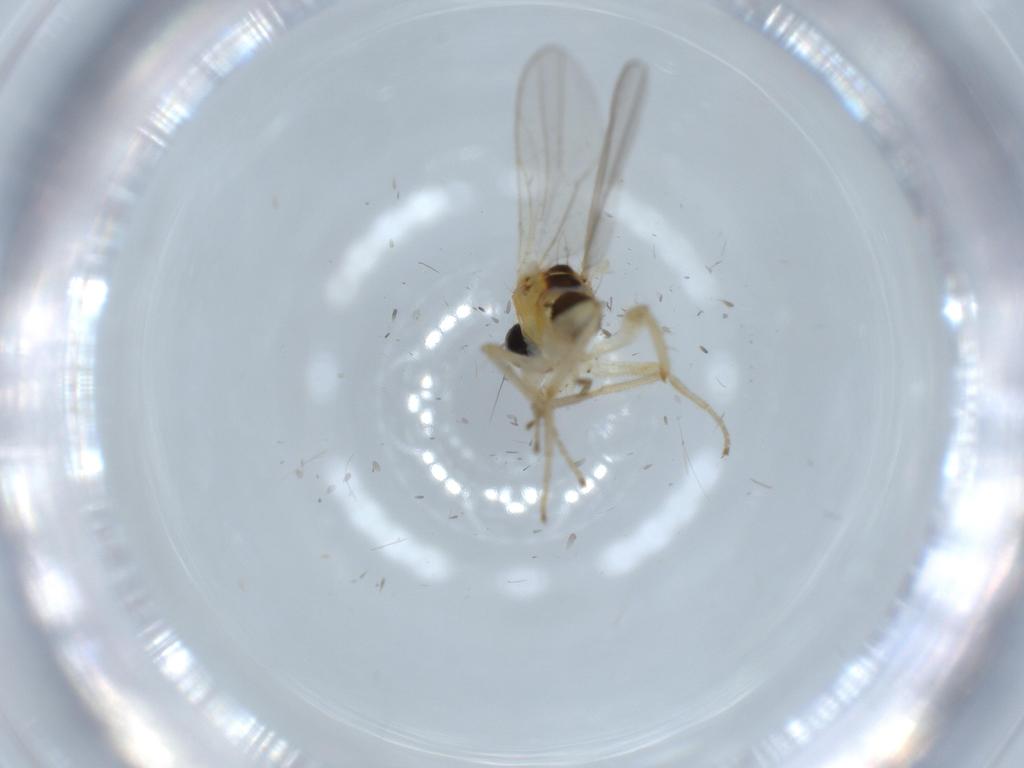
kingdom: Animalia
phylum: Arthropoda
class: Insecta
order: Diptera
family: Hybotidae
